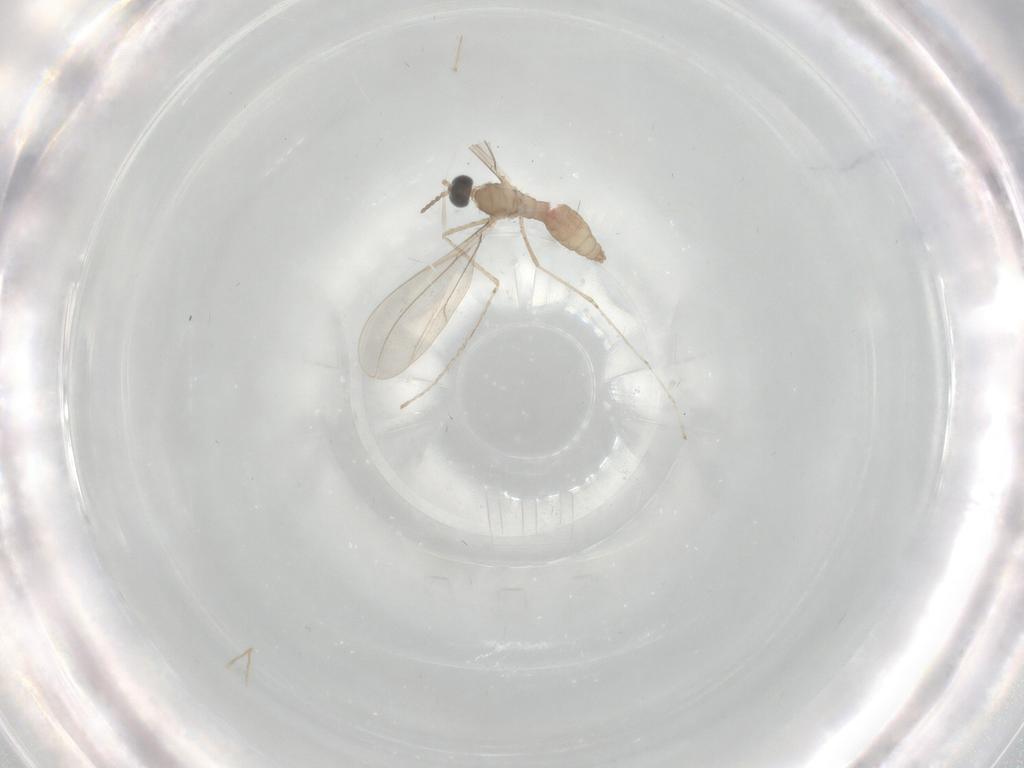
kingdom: Animalia
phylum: Arthropoda
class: Insecta
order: Diptera
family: Cecidomyiidae
